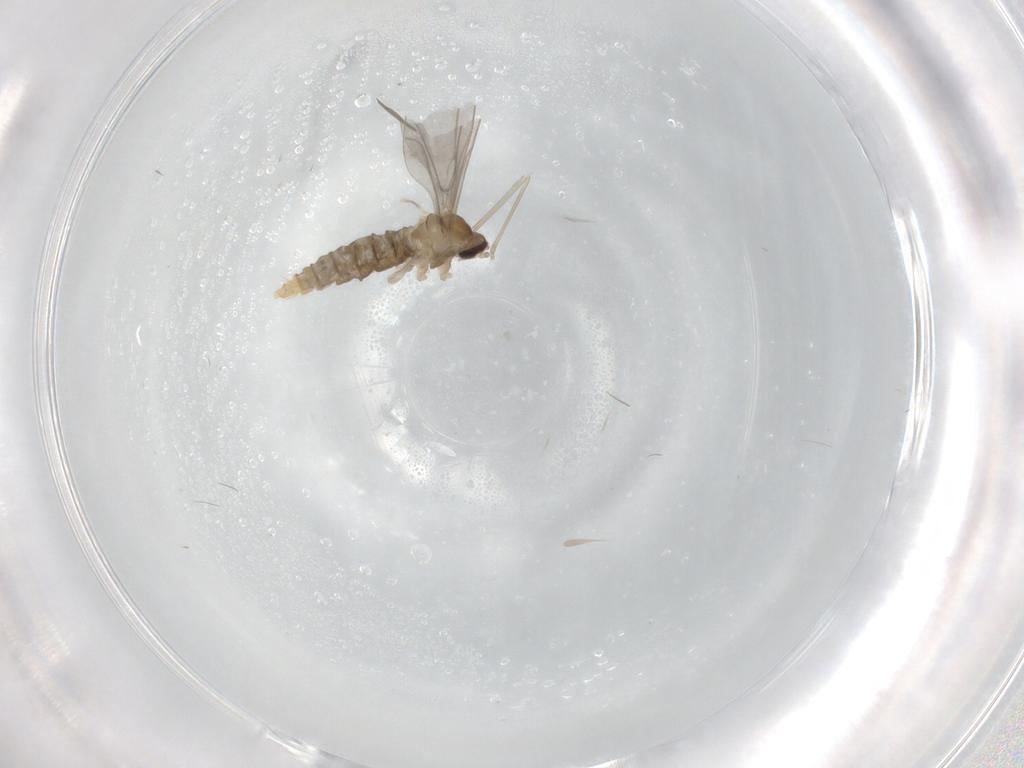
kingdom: Animalia
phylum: Arthropoda
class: Insecta
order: Diptera
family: Cecidomyiidae
